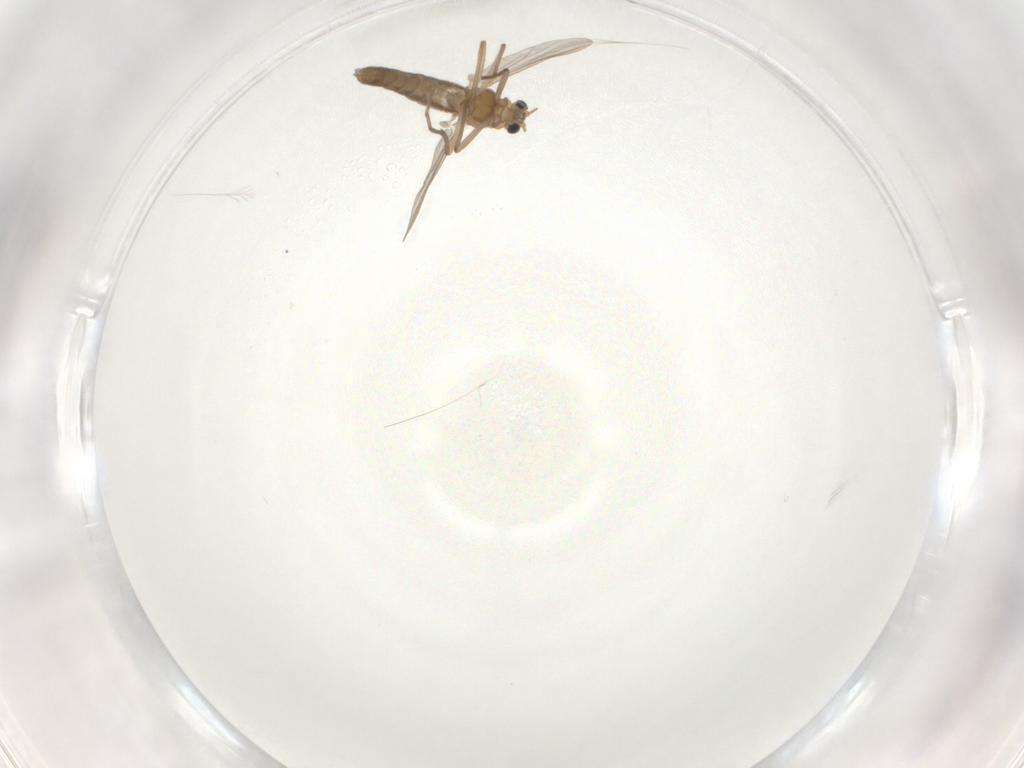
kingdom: Animalia
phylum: Arthropoda
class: Insecta
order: Diptera
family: Chironomidae
